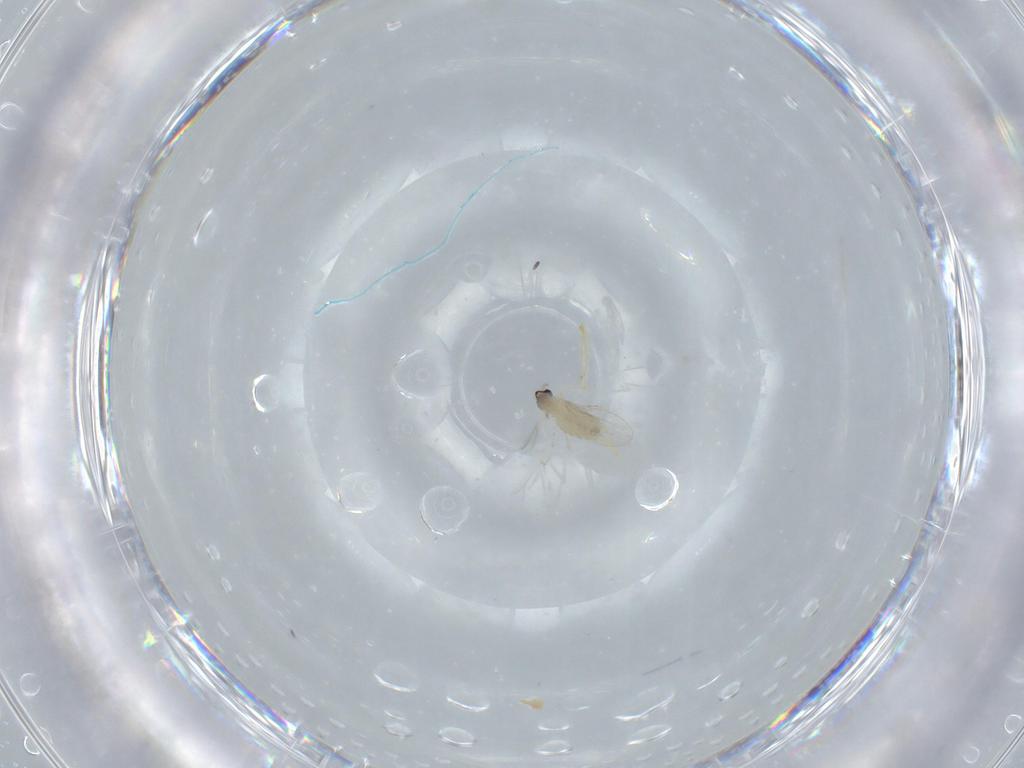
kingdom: Animalia
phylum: Arthropoda
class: Insecta
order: Diptera
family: Cecidomyiidae
